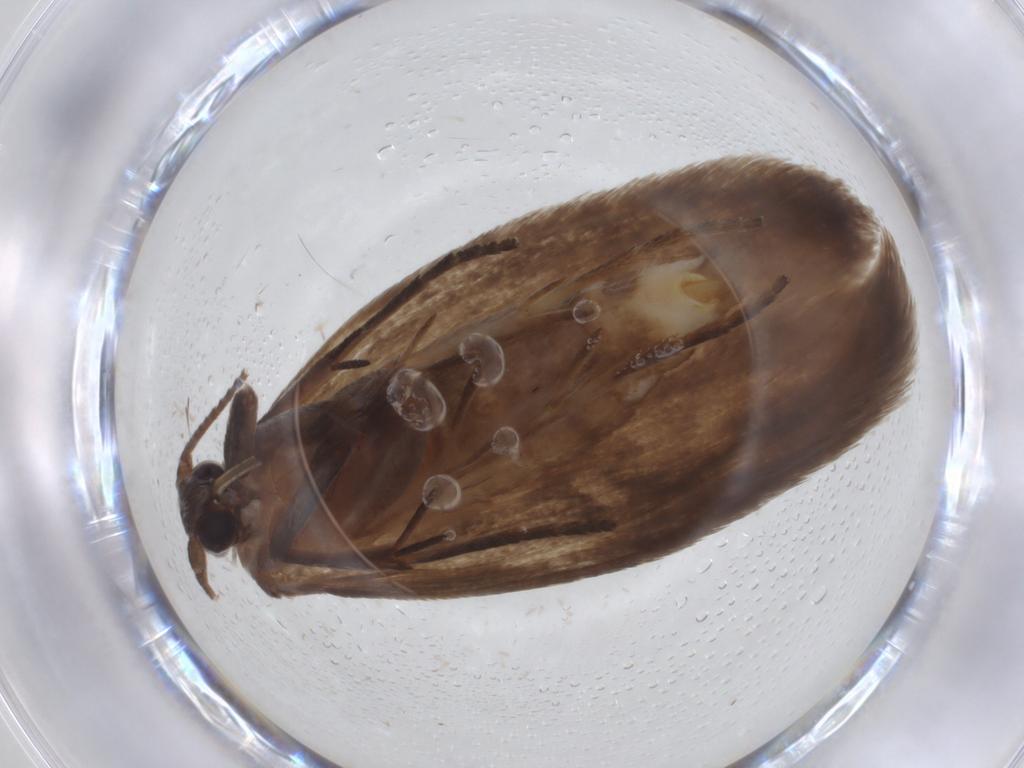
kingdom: Animalia
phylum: Arthropoda
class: Insecta
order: Lepidoptera
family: Roeslerstammiidae
